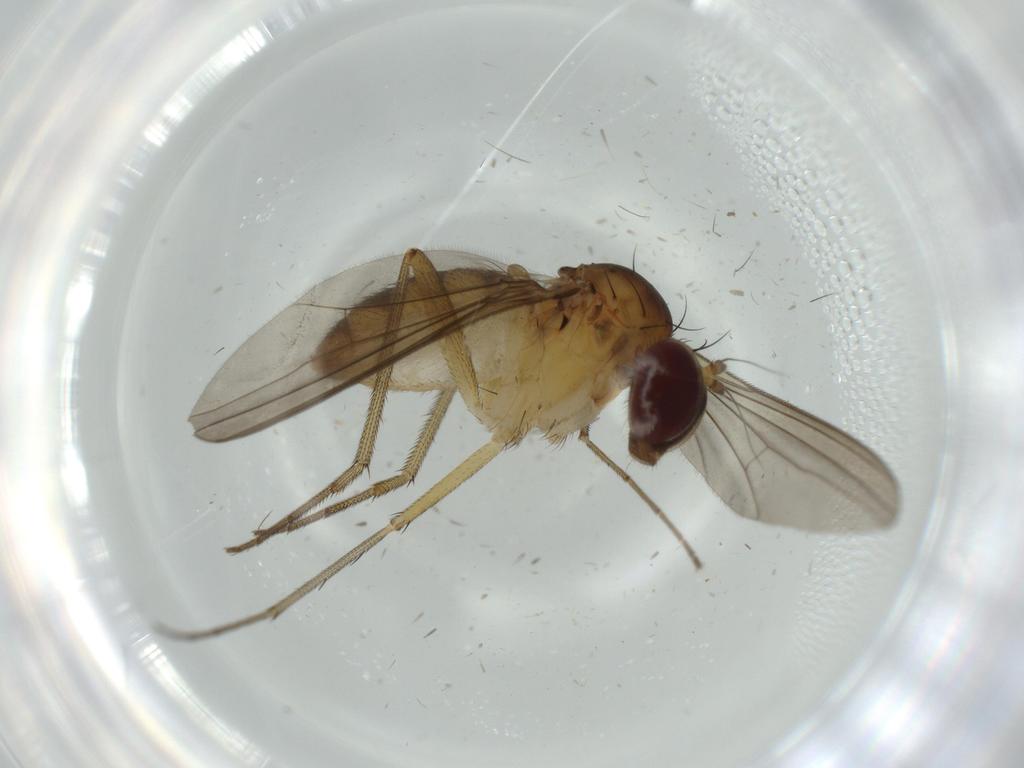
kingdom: Animalia
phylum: Arthropoda
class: Insecta
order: Diptera
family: Dolichopodidae
